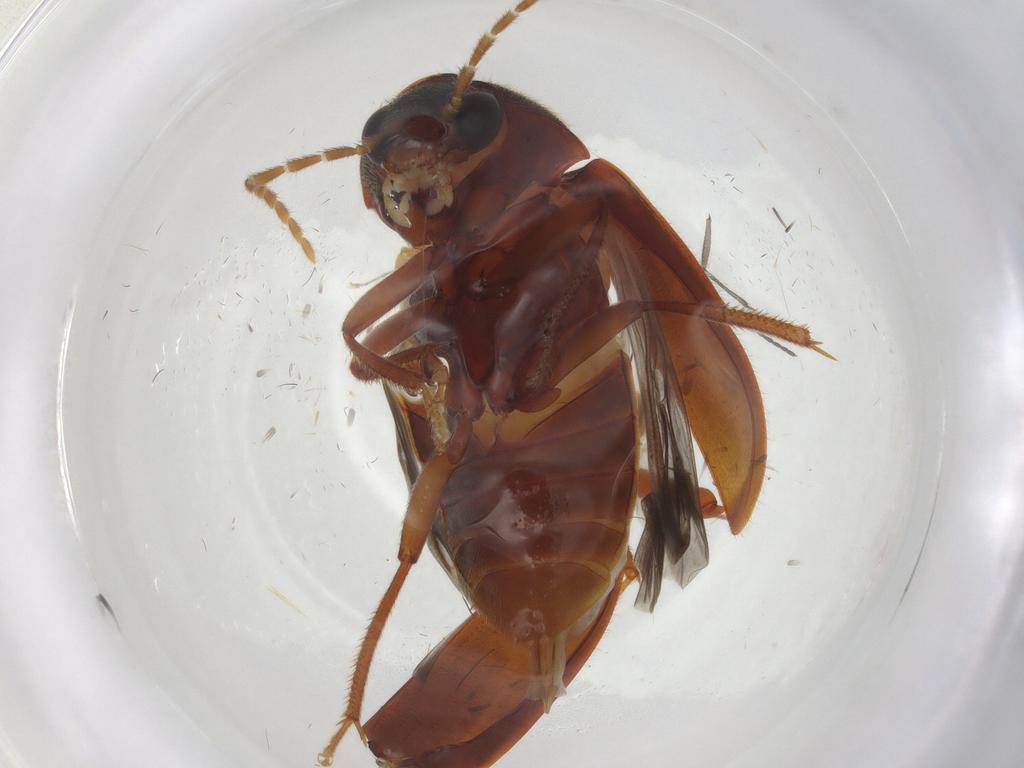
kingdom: Animalia
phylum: Arthropoda
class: Insecta
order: Coleoptera
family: Ptilodactylidae
